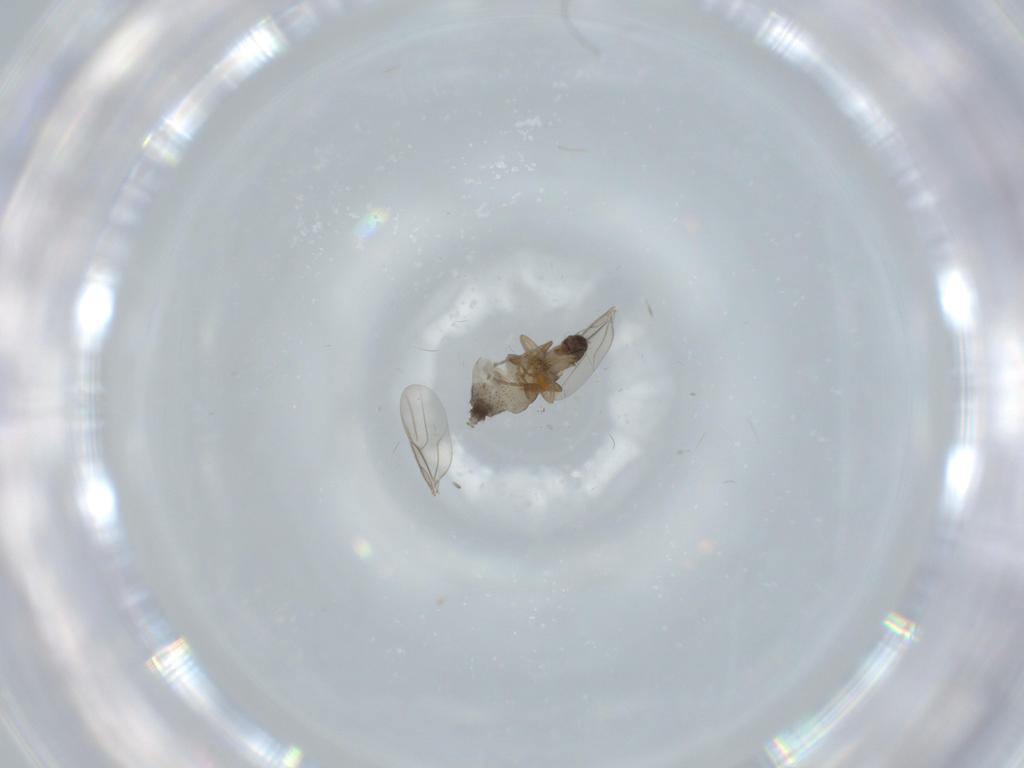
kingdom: Animalia
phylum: Arthropoda
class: Insecta
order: Diptera
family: Phoridae
